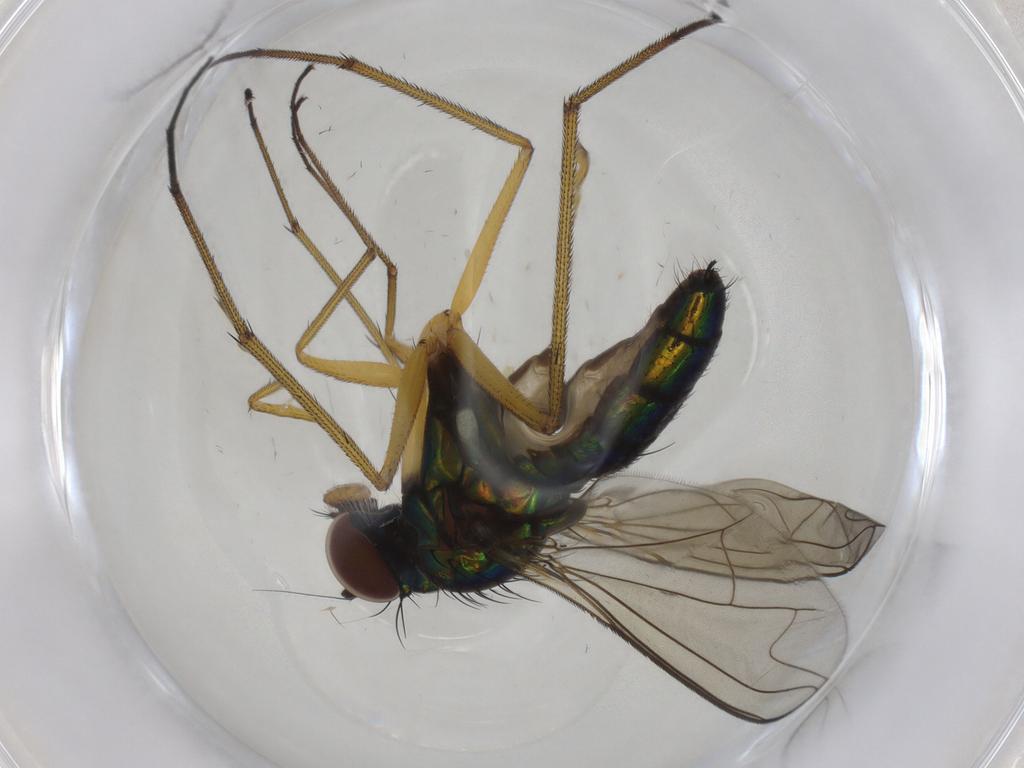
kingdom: Animalia
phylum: Arthropoda
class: Insecta
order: Diptera
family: Dolichopodidae
